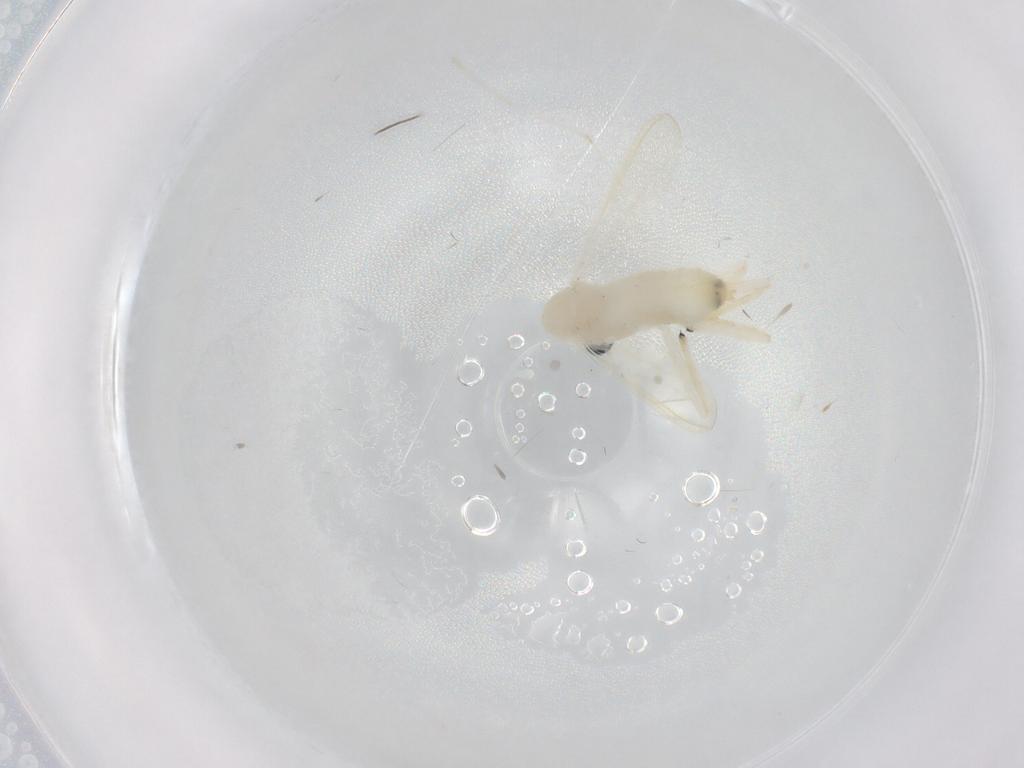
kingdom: Animalia
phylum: Arthropoda
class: Insecta
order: Diptera
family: Chironomidae
